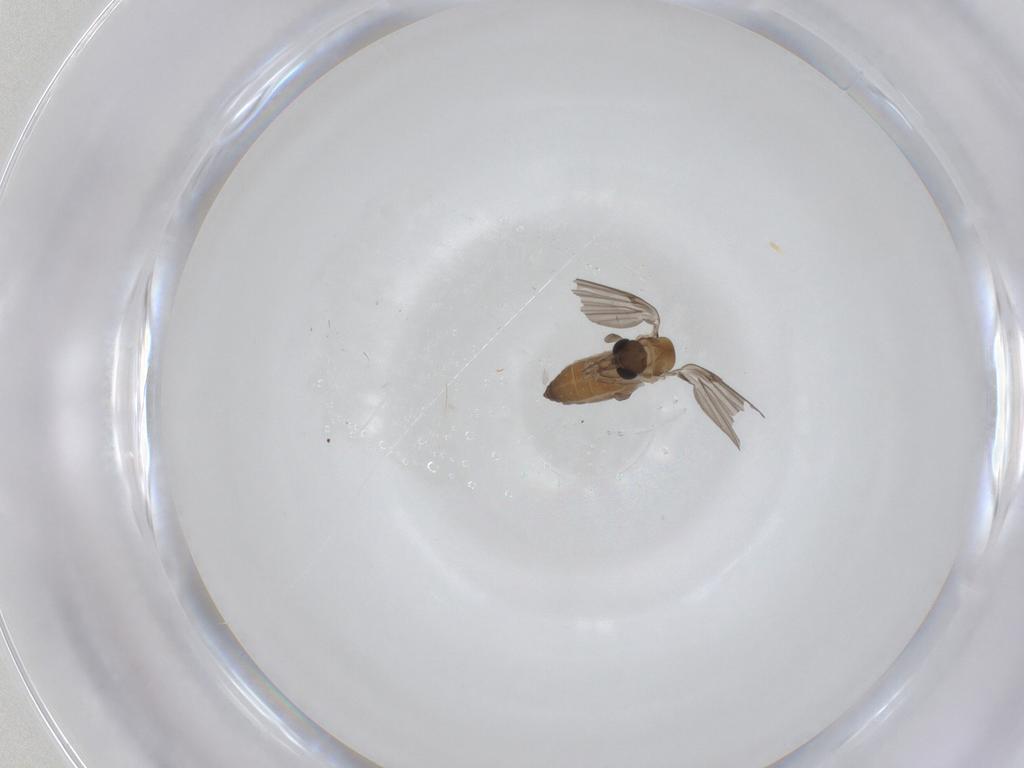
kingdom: Animalia
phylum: Arthropoda
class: Insecta
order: Diptera
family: Psychodidae
